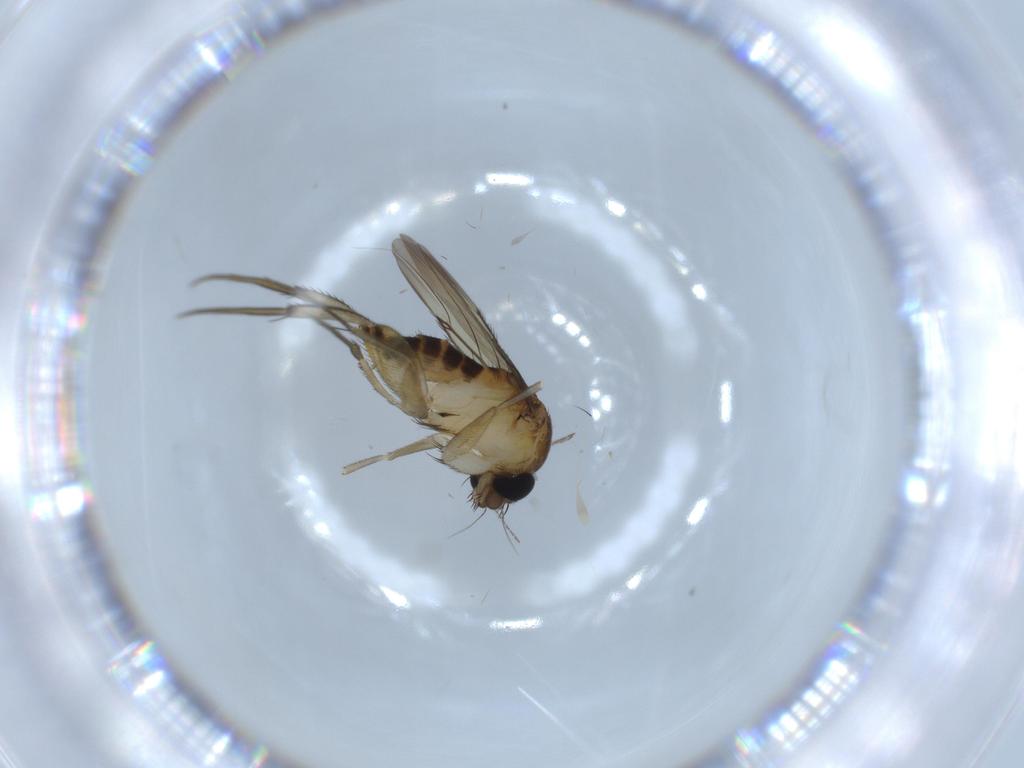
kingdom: Animalia
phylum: Arthropoda
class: Insecta
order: Diptera
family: Phoridae
